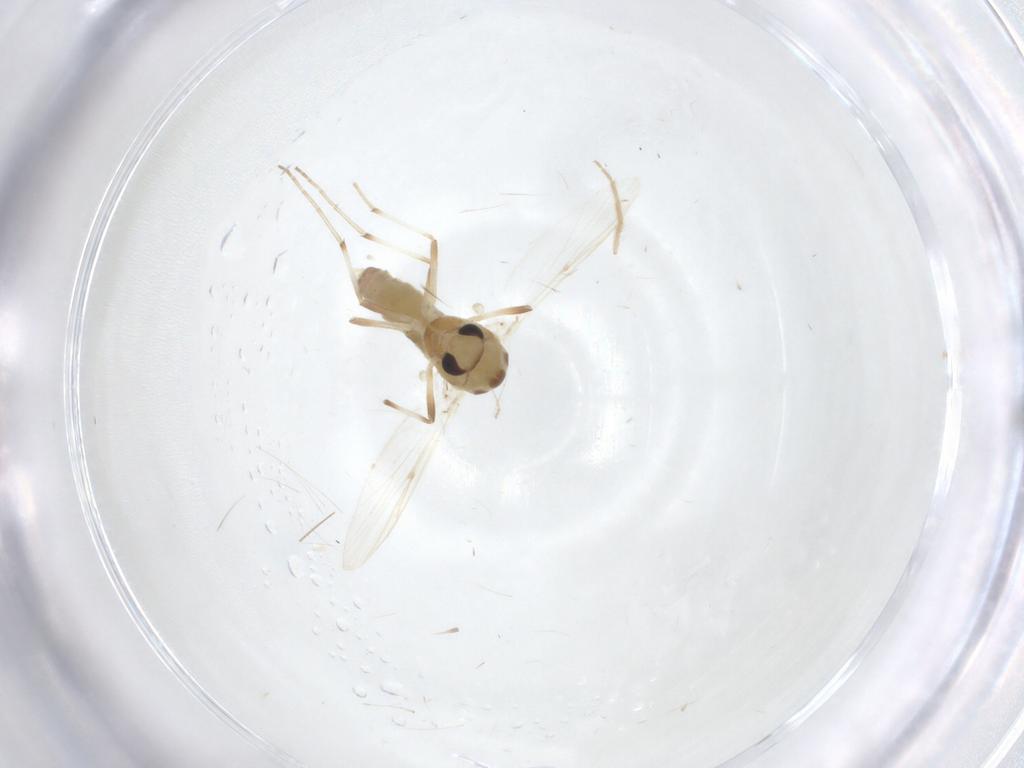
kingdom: Animalia
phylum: Arthropoda
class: Insecta
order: Diptera
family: Chironomidae
